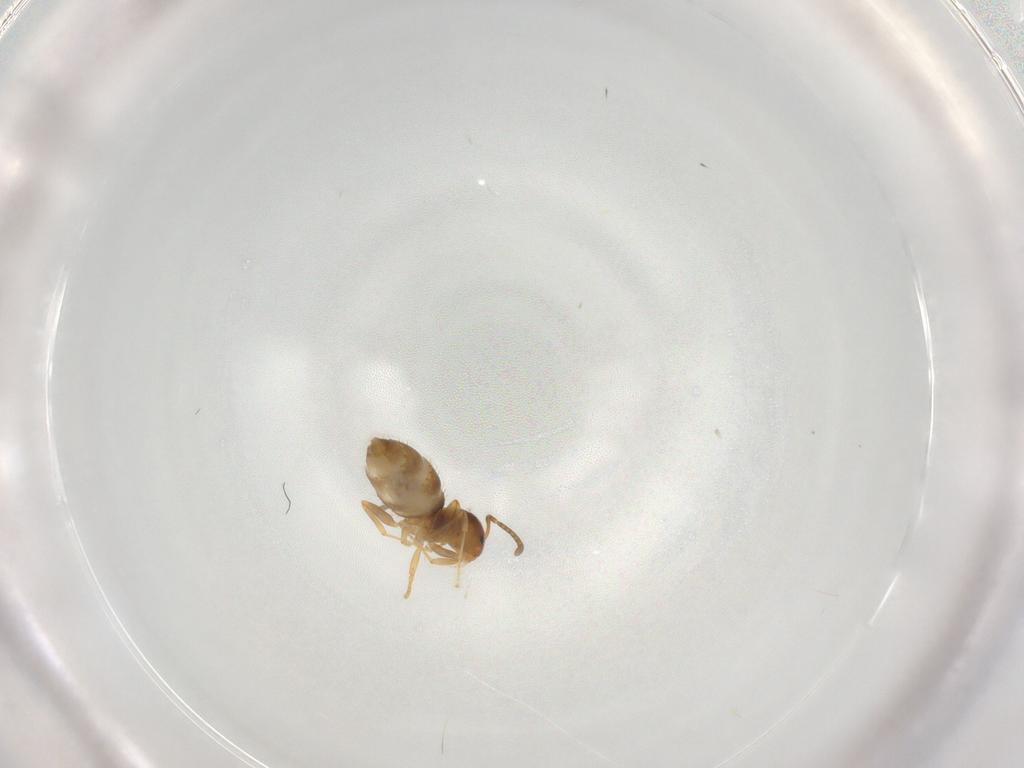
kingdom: Animalia
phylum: Arthropoda
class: Insecta
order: Hymenoptera
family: Formicidae
